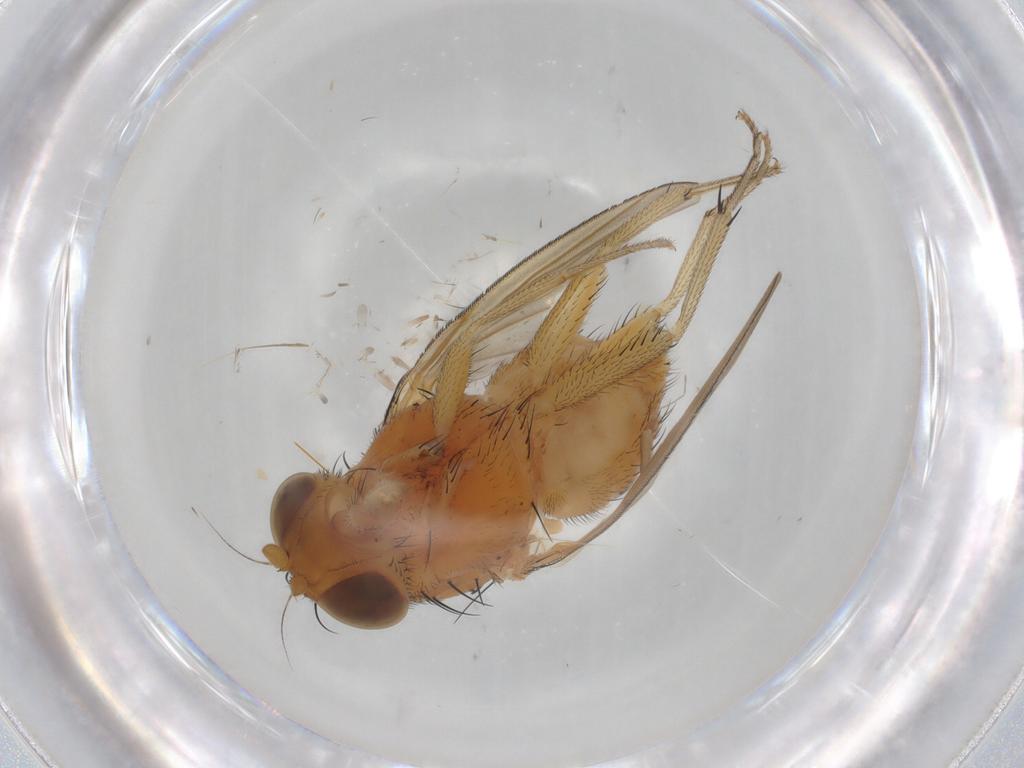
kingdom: Animalia
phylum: Arthropoda
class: Insecta
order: Diptera
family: Lauxaniidae
